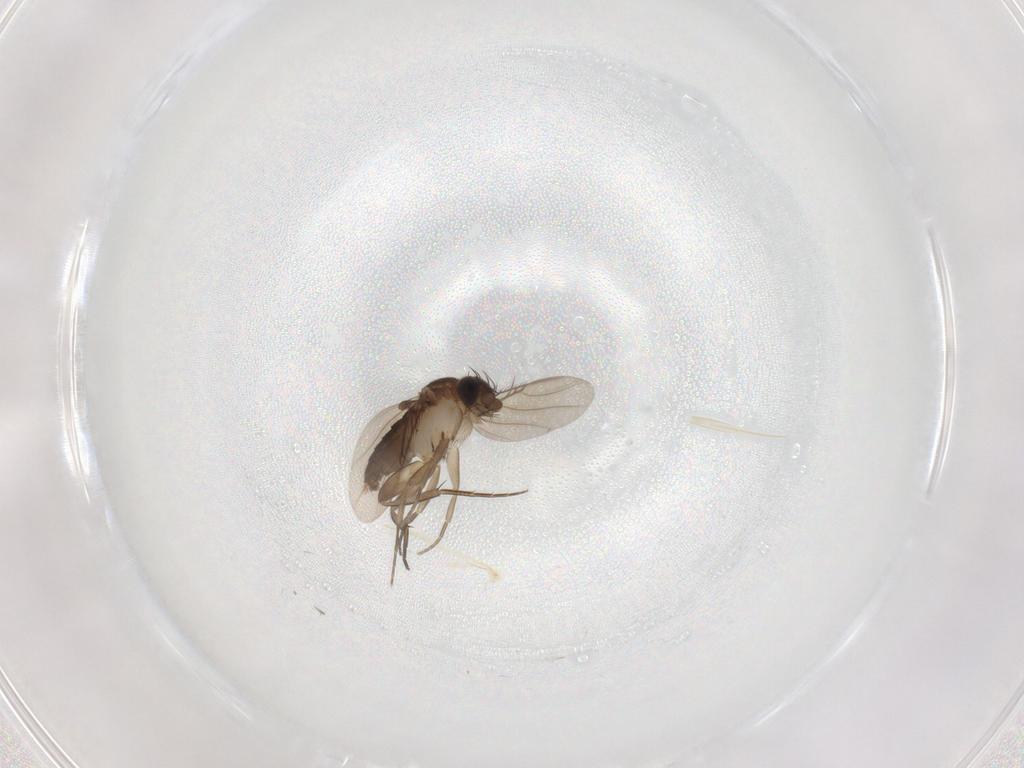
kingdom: Animalia
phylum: Arthropoda
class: Insecta
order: Diptera
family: Phoridae
